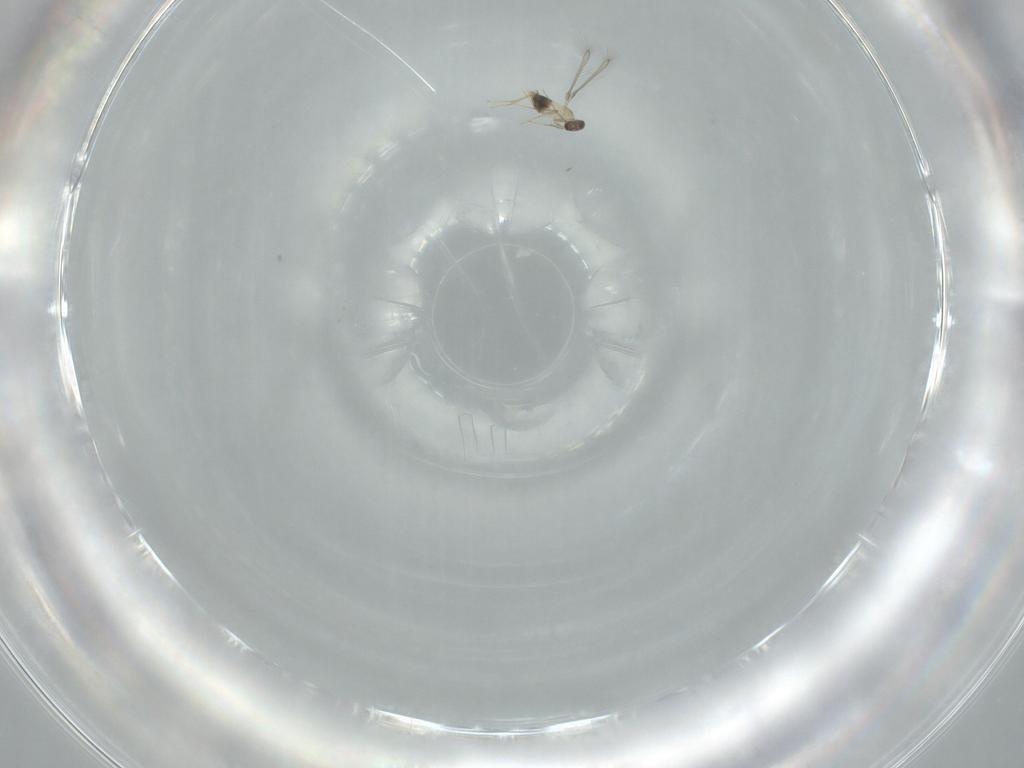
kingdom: Animalia
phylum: Arthropoda
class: Insecta
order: Hymenoptera
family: Mymaridae
